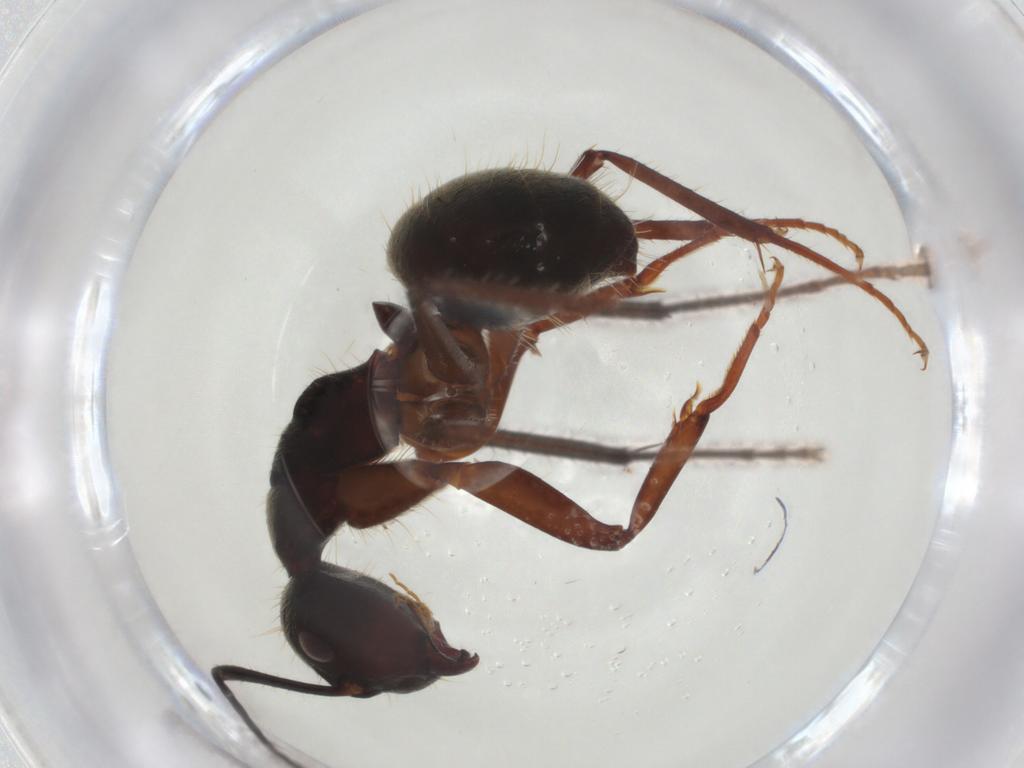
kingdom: Animalia
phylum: Arthropoda
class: Insecta
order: Hymenoptera
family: Formicidae
